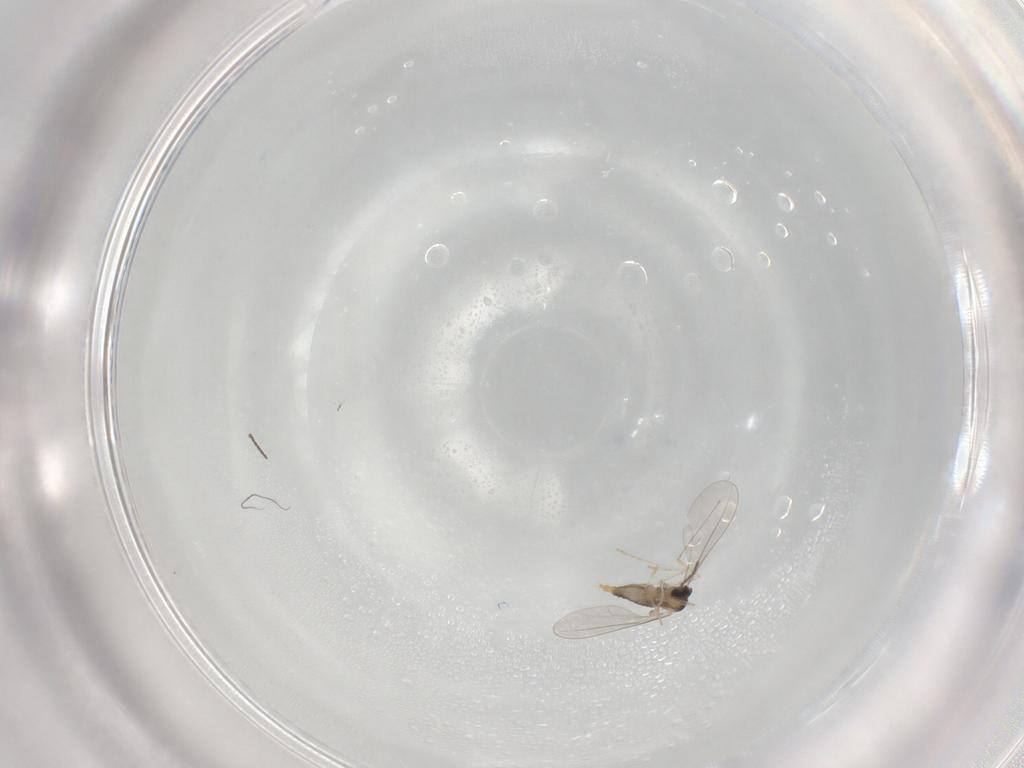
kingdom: Animalia
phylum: Arthropoda
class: Insecta
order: Diptera
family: Cecidomyiidae
